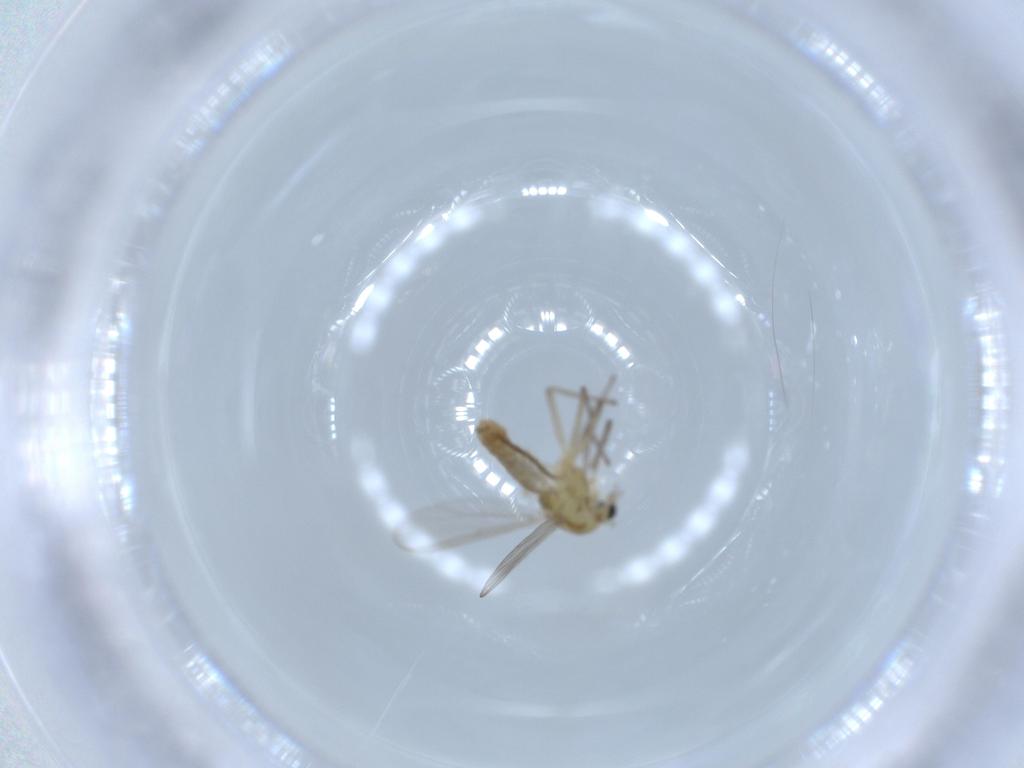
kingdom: Animalia
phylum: Arthropoda
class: Insecta
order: Diptera
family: Chironomidae
